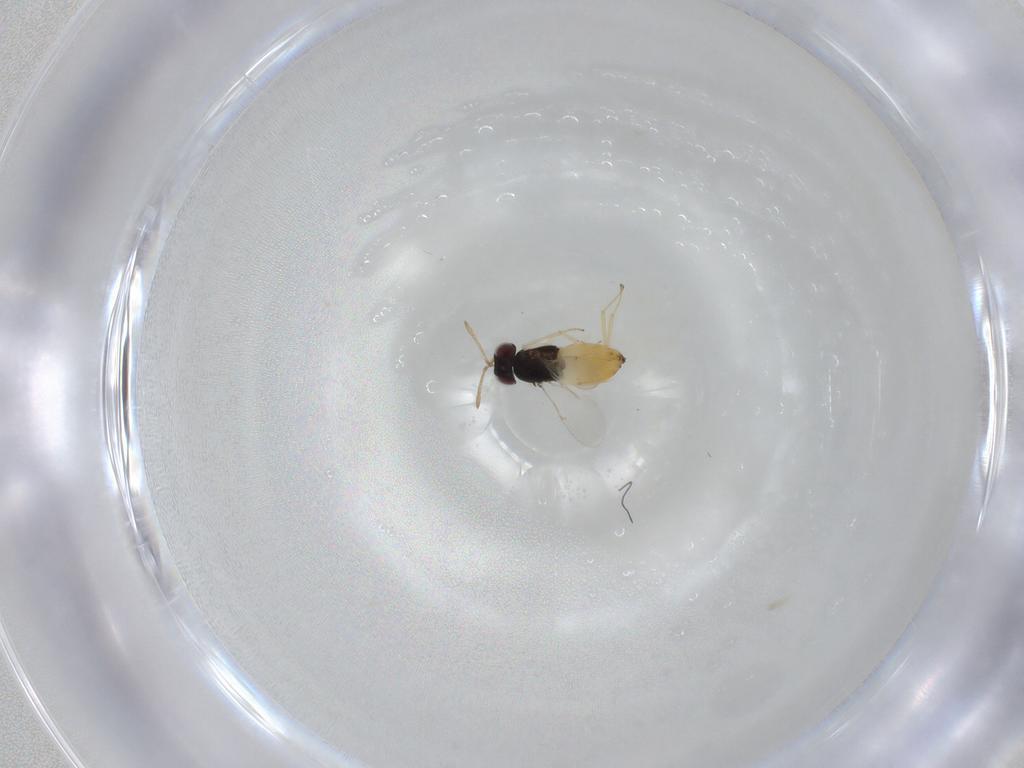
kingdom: Animalia
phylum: Arthropoda
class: Insecta
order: Hymenoptera
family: Encyrtidae
